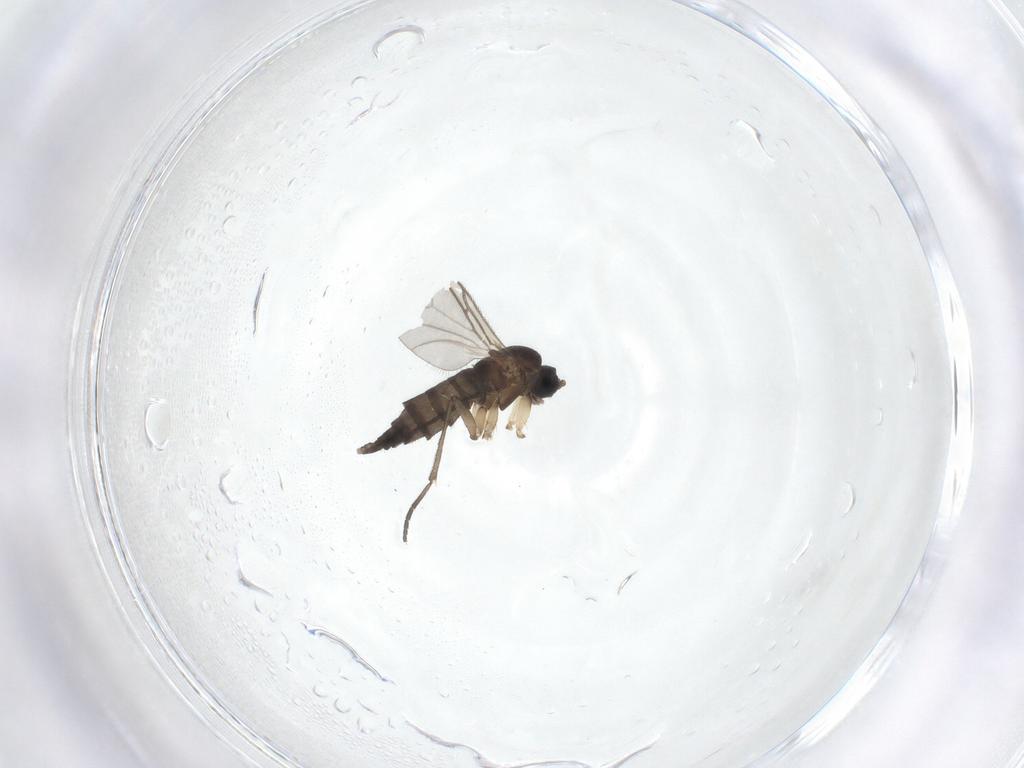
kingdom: Animalia
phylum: Arthropoda
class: Insecta
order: Diptera
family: Sciaridae
